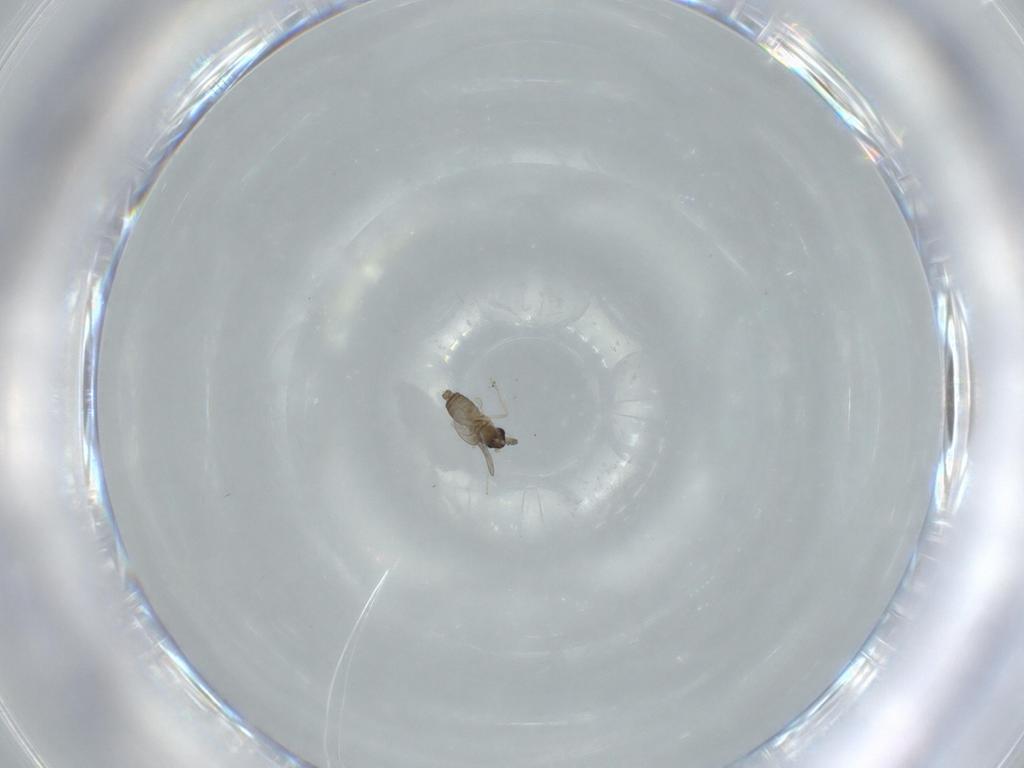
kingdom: Animalia
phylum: Arthropoda
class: Insecta
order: Diptera
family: Cecidomyiidae
